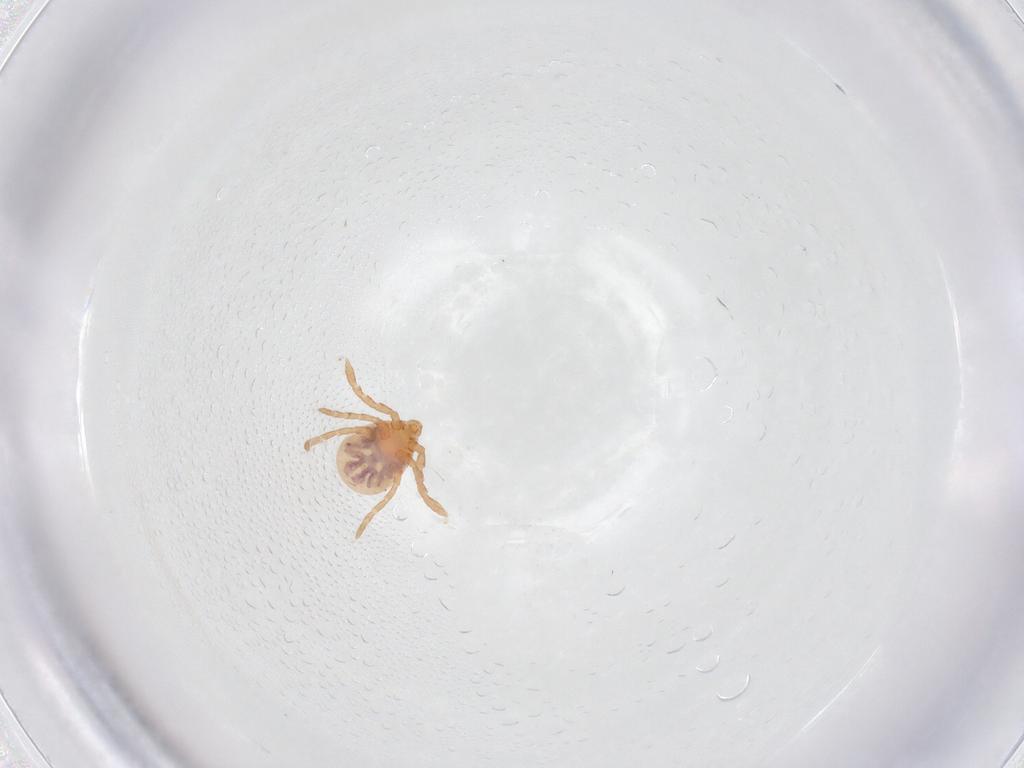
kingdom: Animalia
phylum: Arthropoda
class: Arachnida
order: Ixodida
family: Ixodidae
